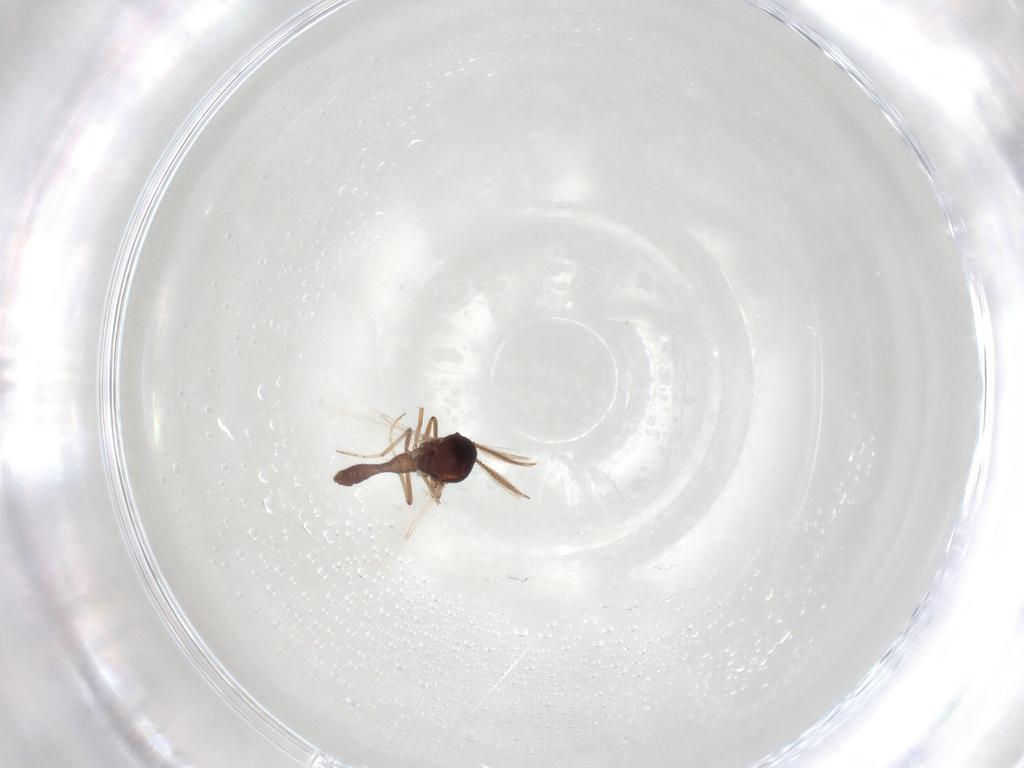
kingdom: Animalia
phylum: Arthropoda
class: Insecta
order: Diptera
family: Ceratopogonidae
